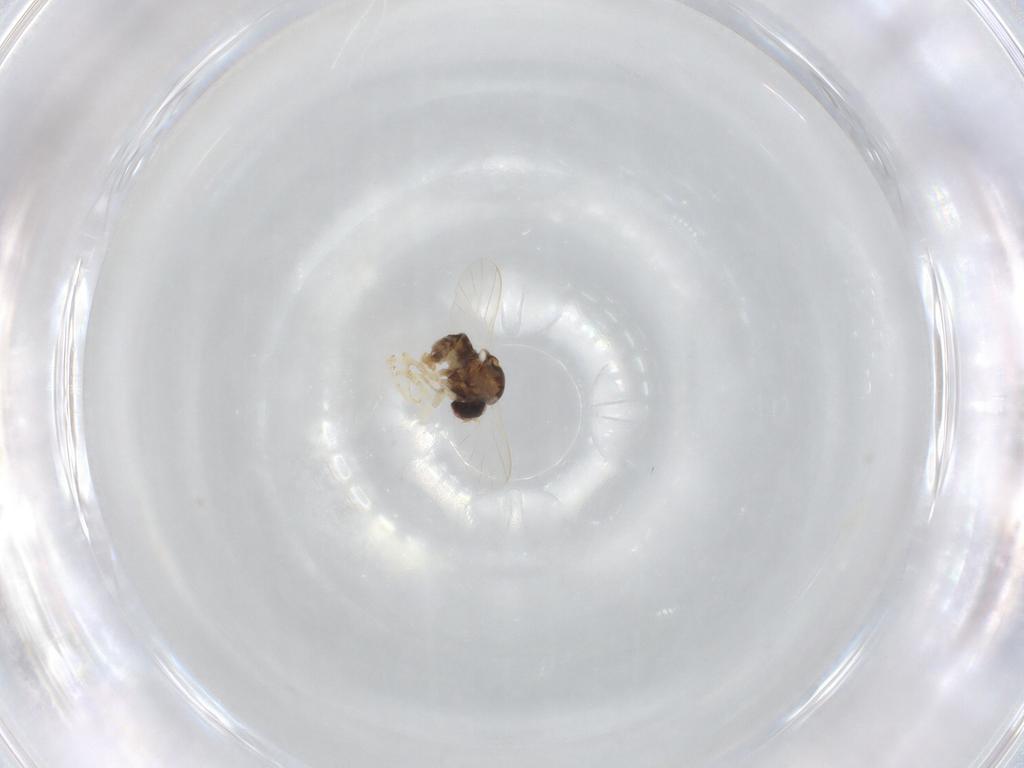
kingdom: Animalia
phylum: Arthropoda
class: Insecta
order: Diptera
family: Bombyliidae
